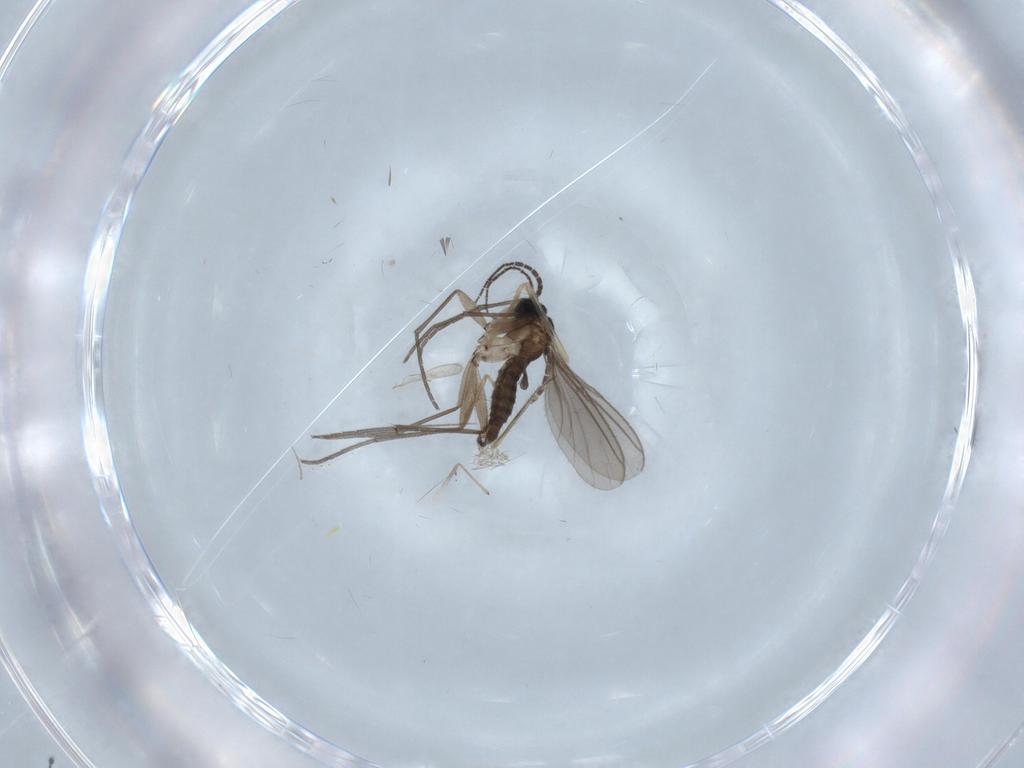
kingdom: Animalia
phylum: Arthropoda
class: Insecta
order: Diptera
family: Sciaridae
